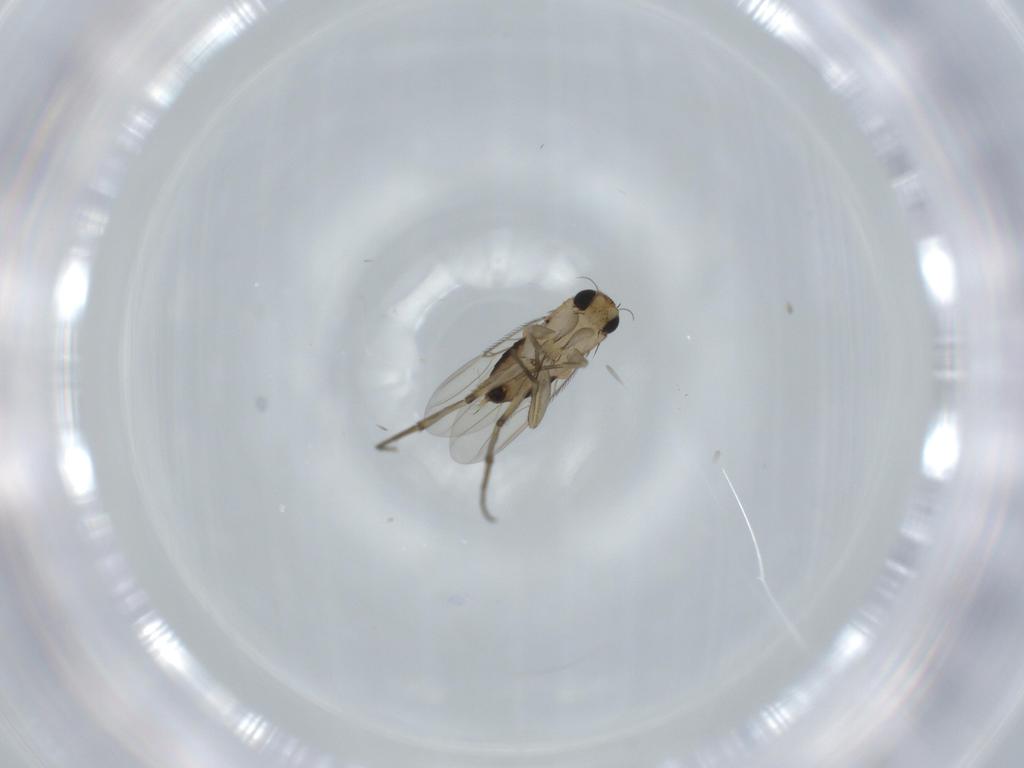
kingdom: Animalia
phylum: Arthropoda
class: Insecta
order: Diptera
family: Phoridae
